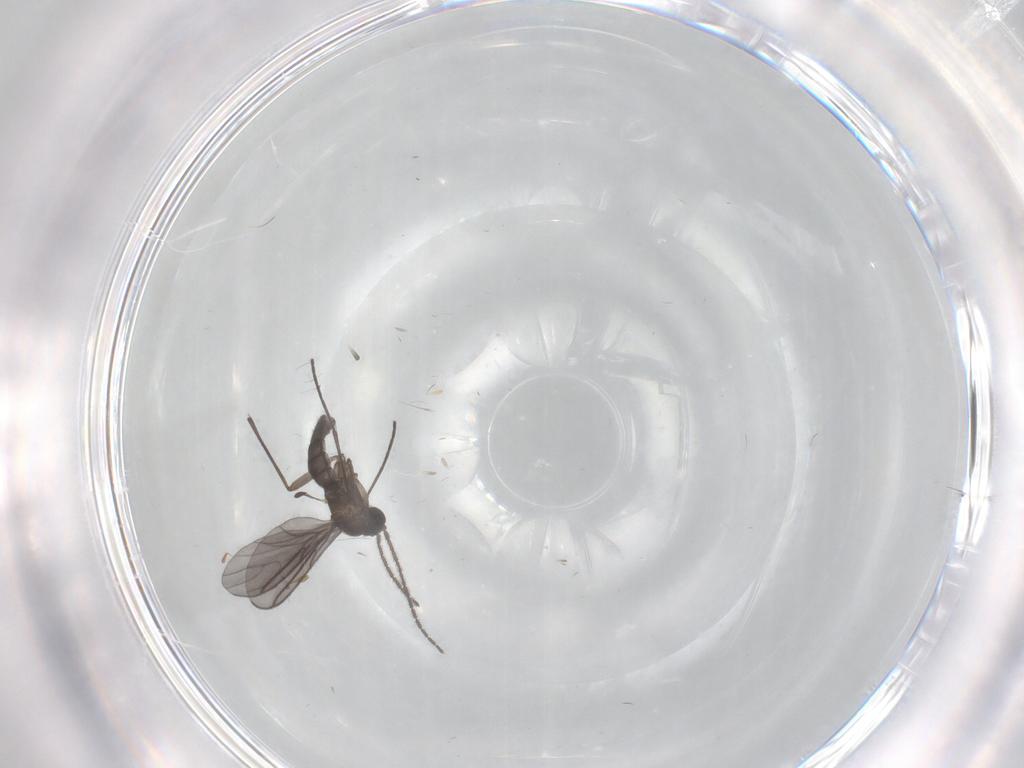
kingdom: Animalia
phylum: Arthropoda
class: Insecta
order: Diptera
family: Sciaridae
